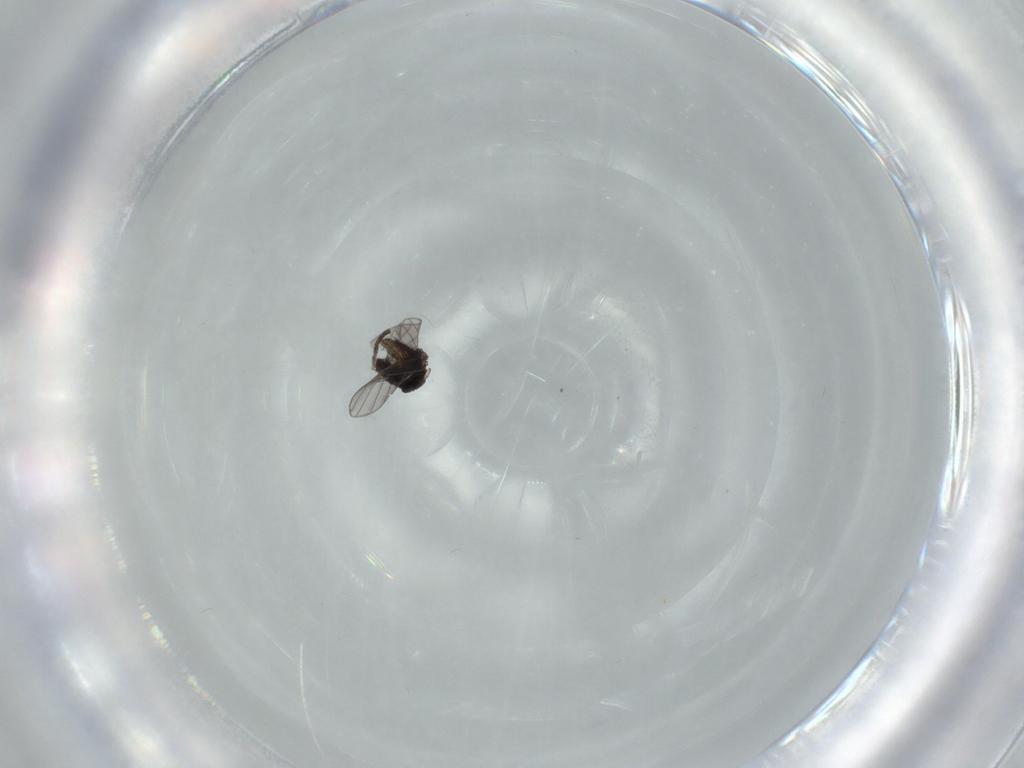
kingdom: Animalia
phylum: Arthropoda
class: Insecta
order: Diptera
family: Psychodidae
